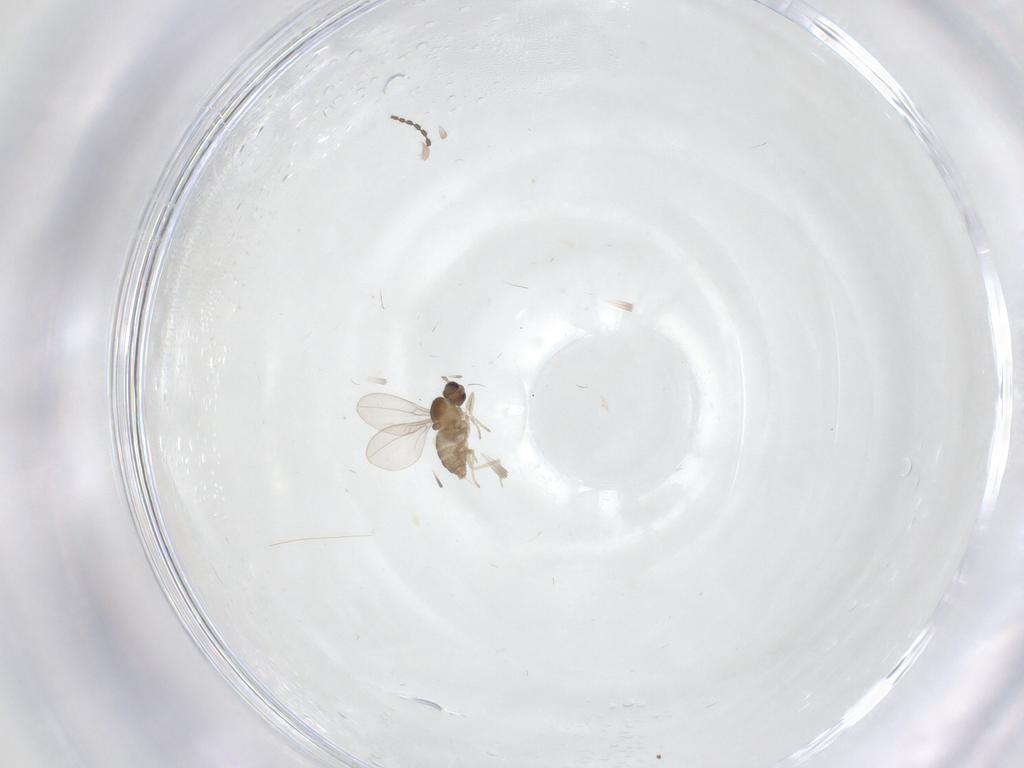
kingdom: Animalia
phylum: Arthropoda
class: Insecta
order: Diptera
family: Cecidomyiidae
